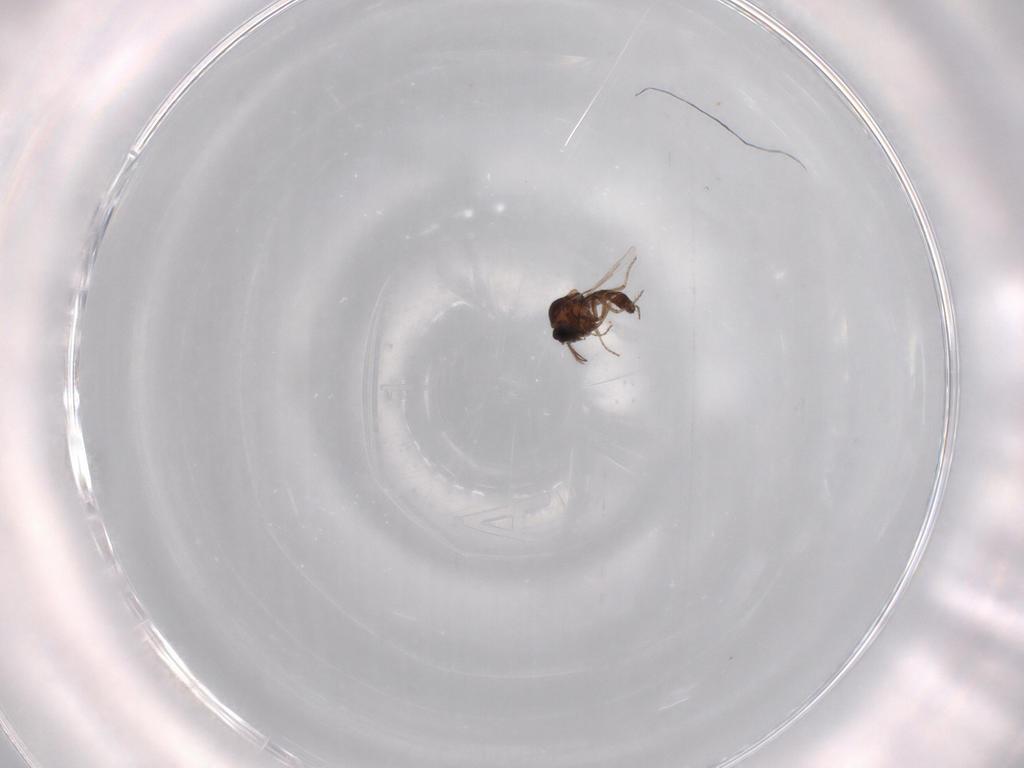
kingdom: Animalia
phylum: Arthropoda
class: Insecta
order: Diptera
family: Ceratopogonidae
